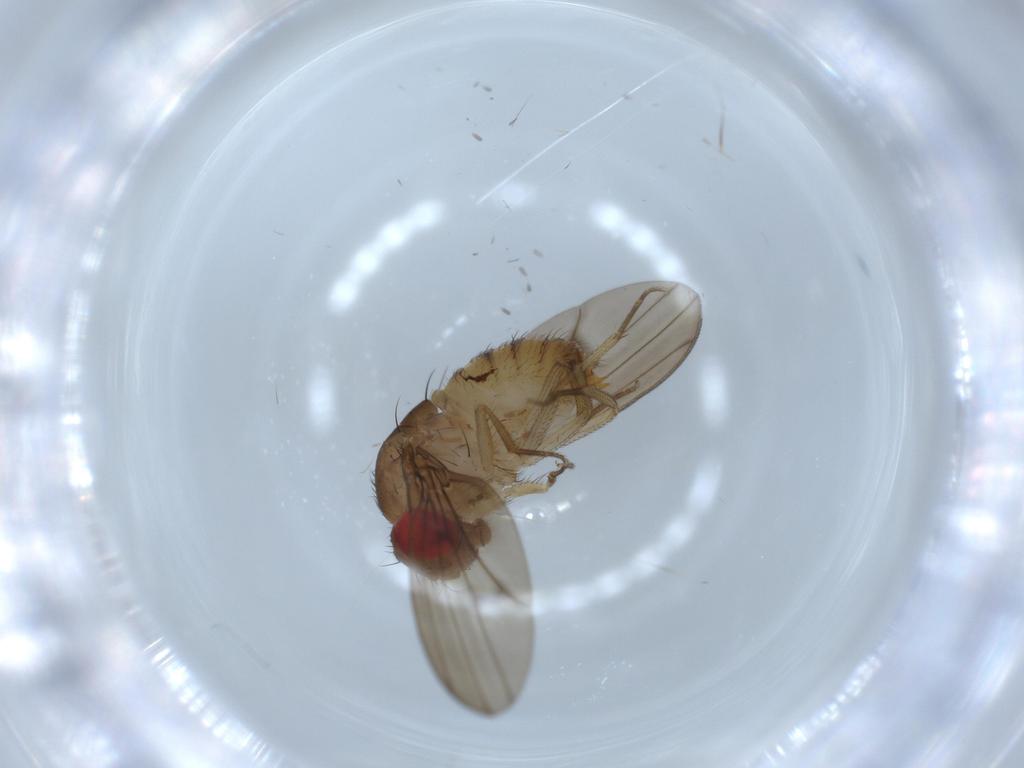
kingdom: Animalia
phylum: Arthropoda
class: Insecta
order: Diptera
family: Drosophilidae
